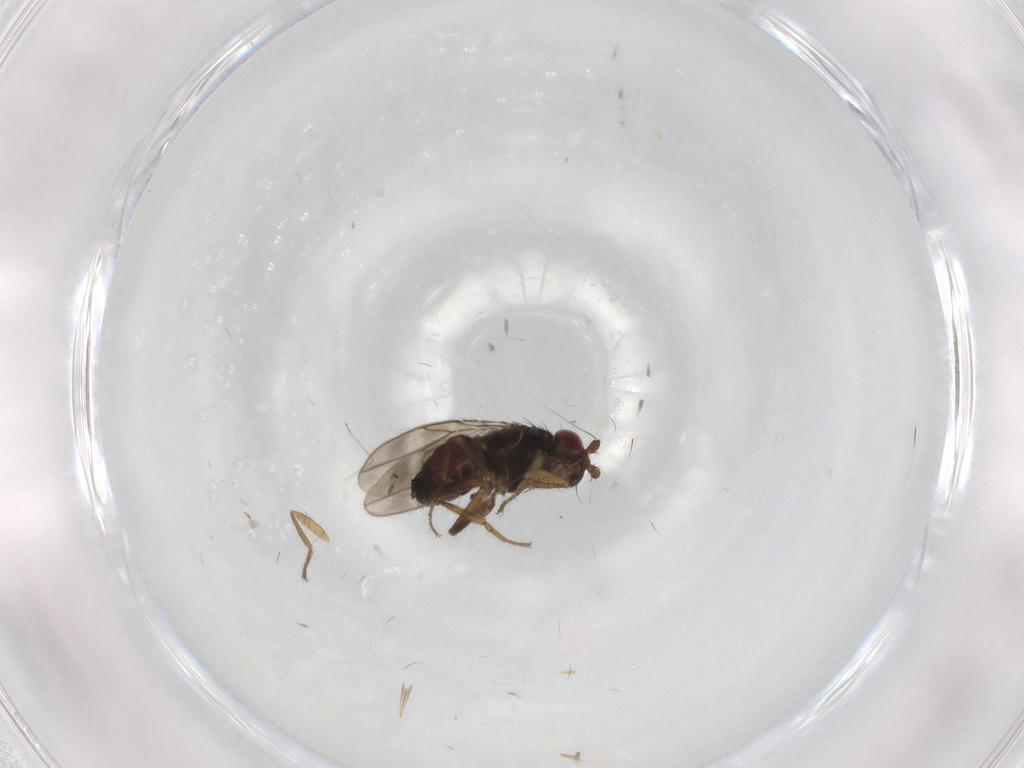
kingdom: Animalia
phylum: Arthropoda
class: Insecta
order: Diptera
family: Sphaeroceridae
